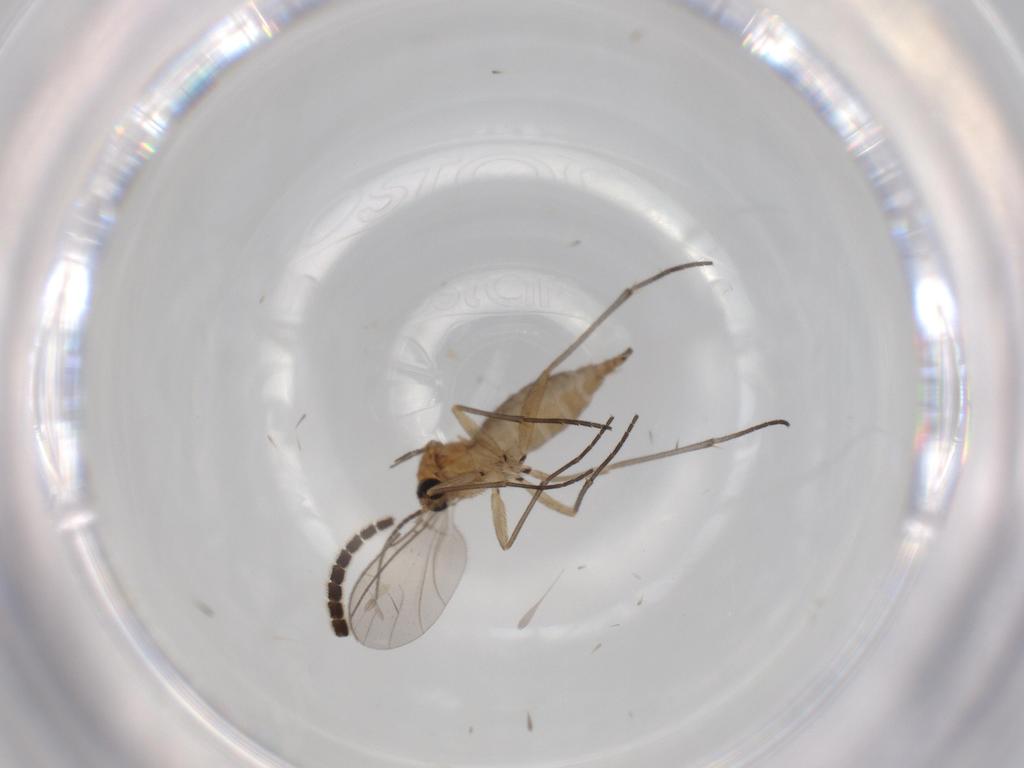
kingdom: Animalia
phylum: Arthropoda
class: Insecta
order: Diptera
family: Sciaridae
